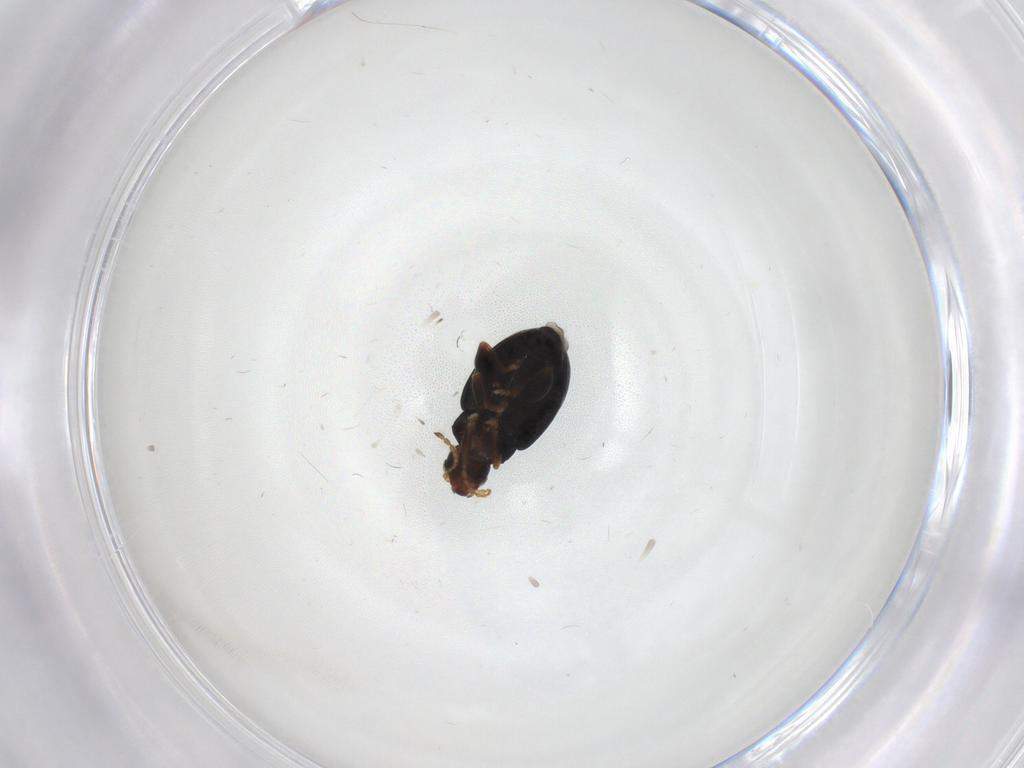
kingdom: Animalia
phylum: Arthropoda
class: Insecta
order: Coleoptera
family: Chrysomelidae
